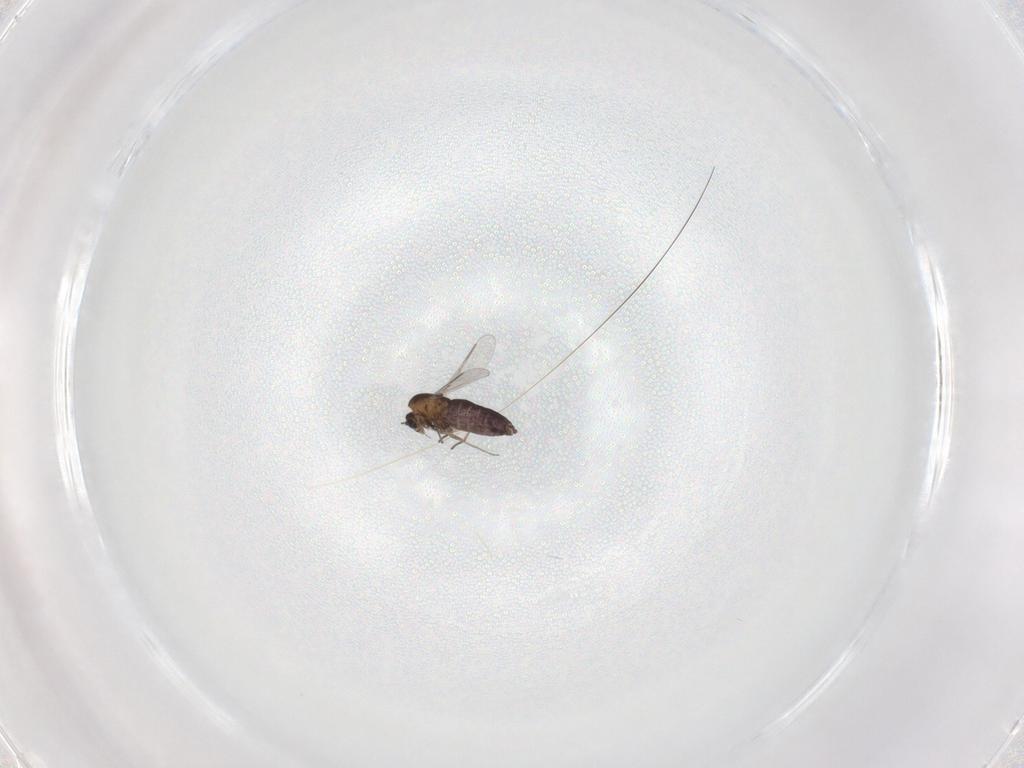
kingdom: Animalia
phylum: Arthropoda
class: Insecta
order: Diptera
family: Chironomidae
